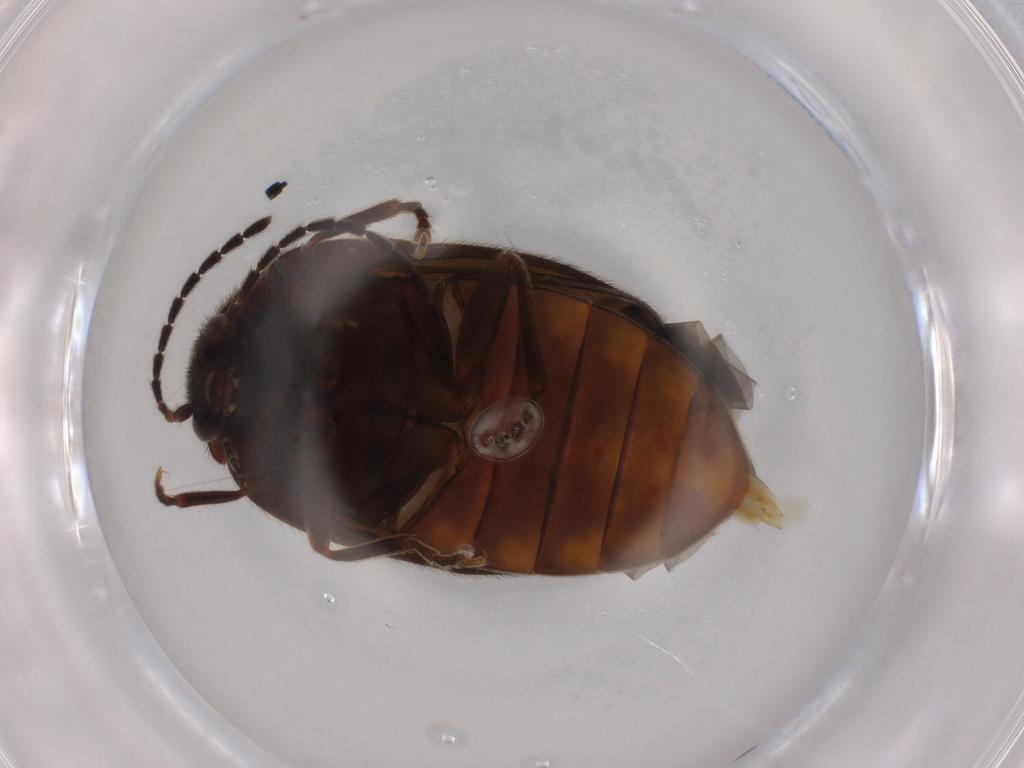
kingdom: Animalia
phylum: Arthropoda
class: Insecta
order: Coleoptera
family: Scirtidae
